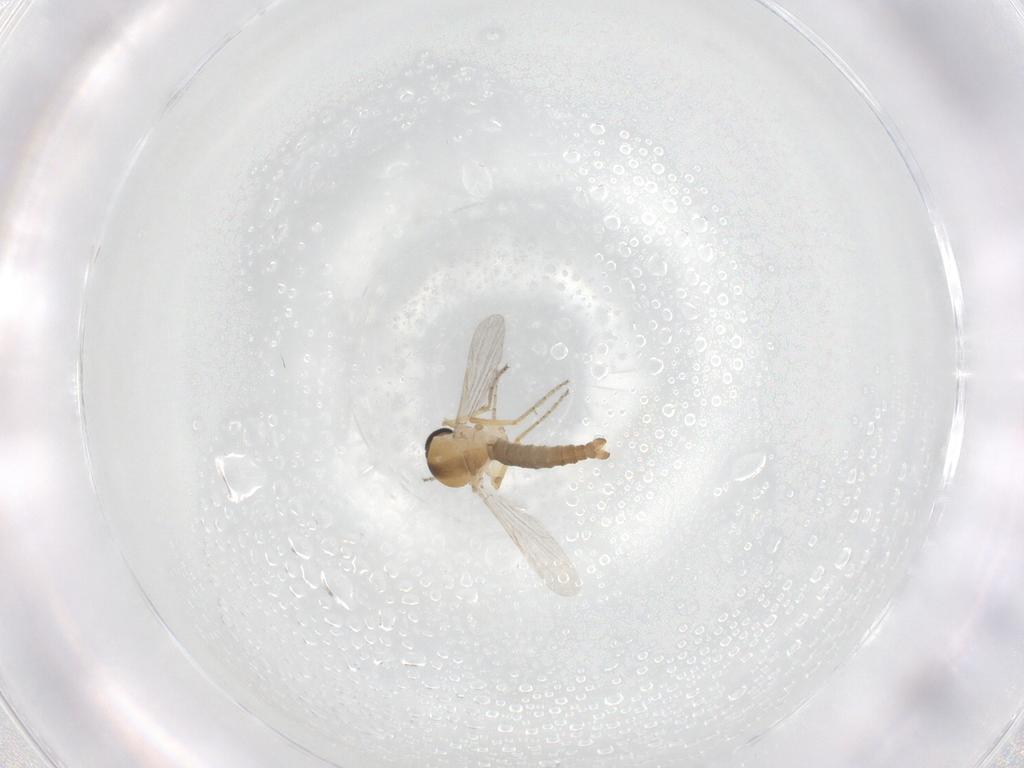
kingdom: Animalia
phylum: Arthropoda
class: Insecta
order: Diptera
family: Ceratopogonidae
